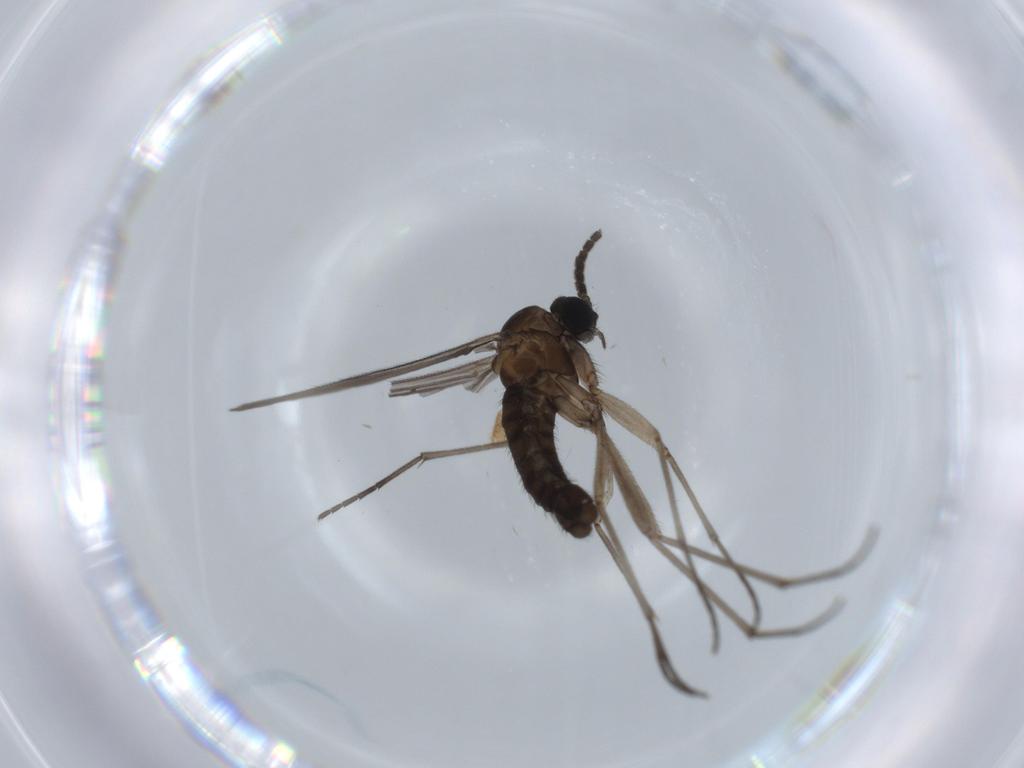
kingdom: Animalia
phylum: Arthropoda
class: Insecta
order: Diptera
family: Sciaridae
